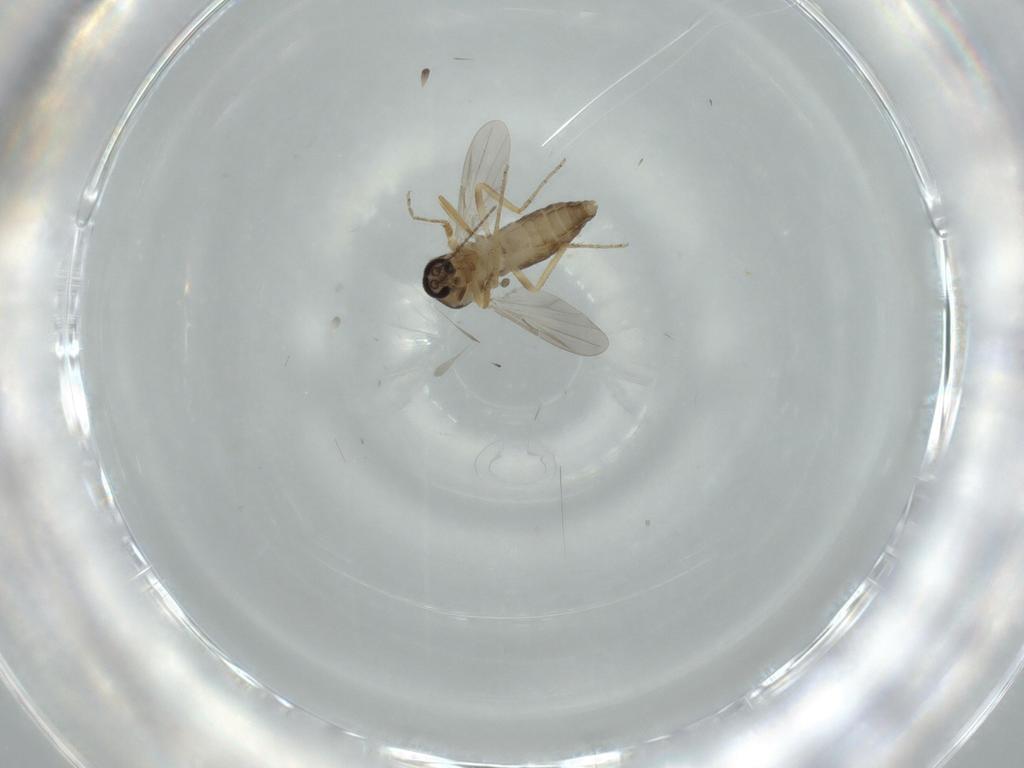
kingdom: Animalia
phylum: Arthropoda
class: Insecta
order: Diptera
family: Ceratopogonidae
